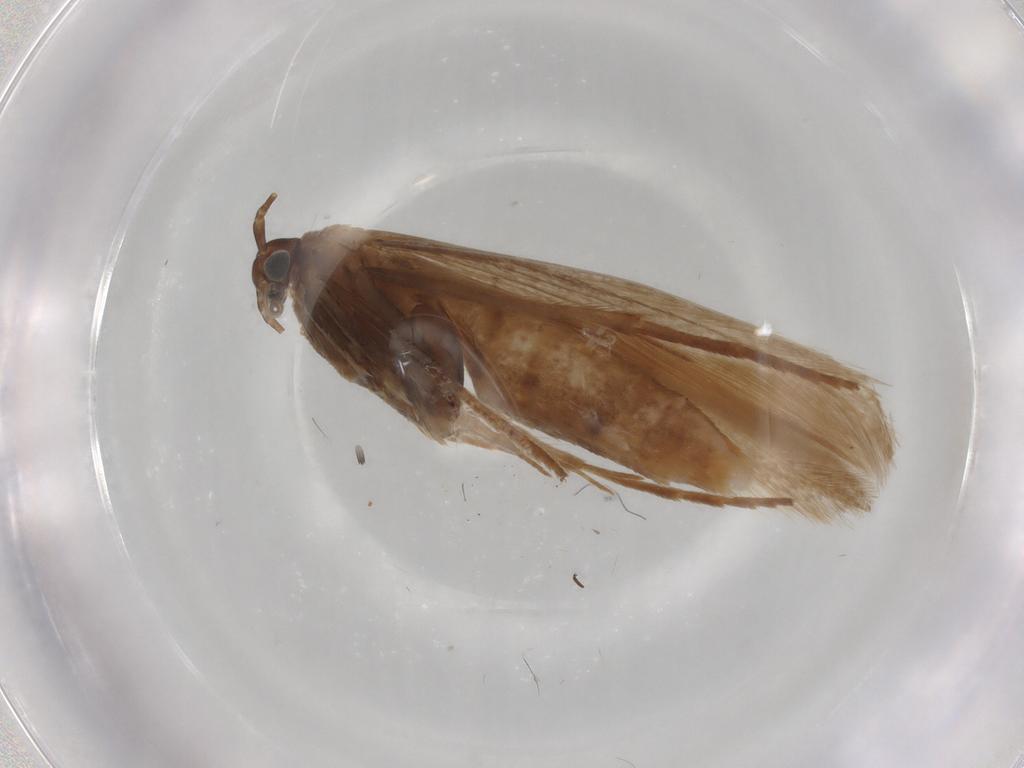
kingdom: Animalia
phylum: Arthropoda
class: Insecta
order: Lepidoptera
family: Coleophoridae
